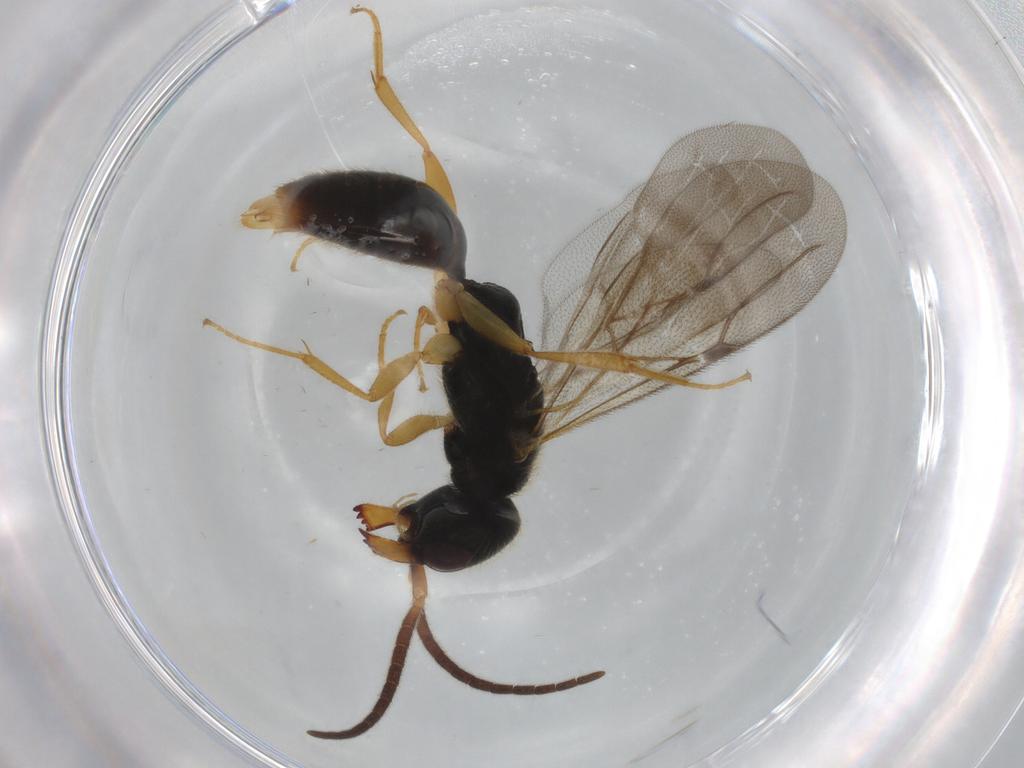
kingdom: Animalia
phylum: Arthropoda
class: Insecta
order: Hymenoptera
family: Bethylidae
